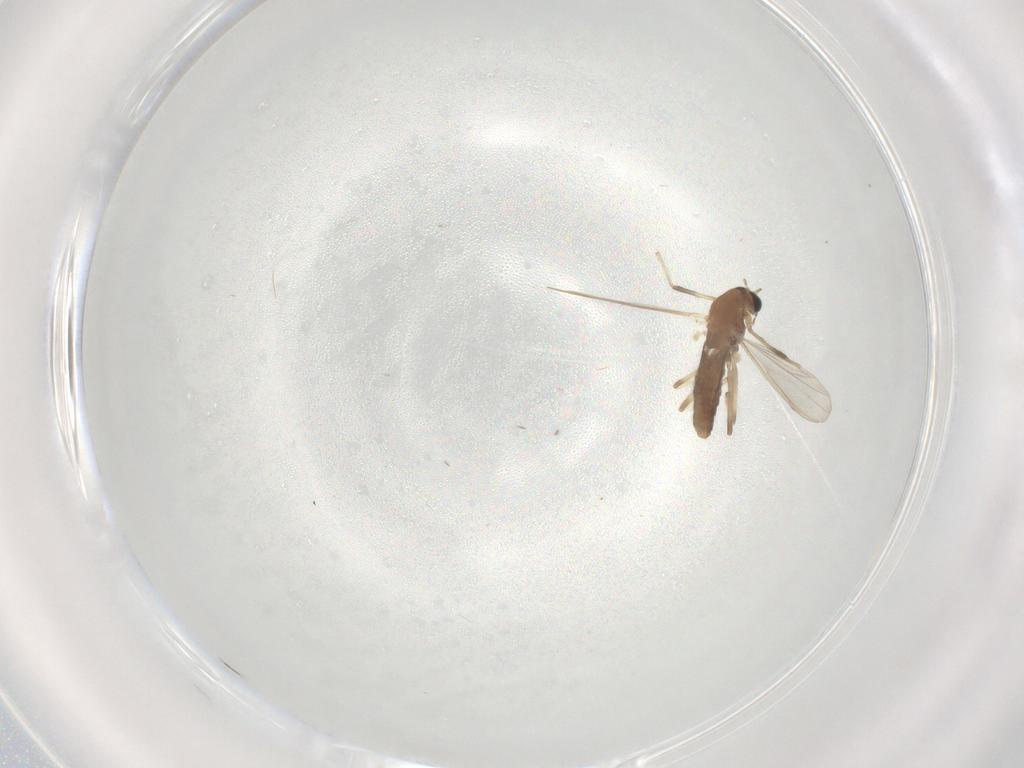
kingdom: Animalia
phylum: Arthropoda
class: Insecta
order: Diptera
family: Chironomidae
